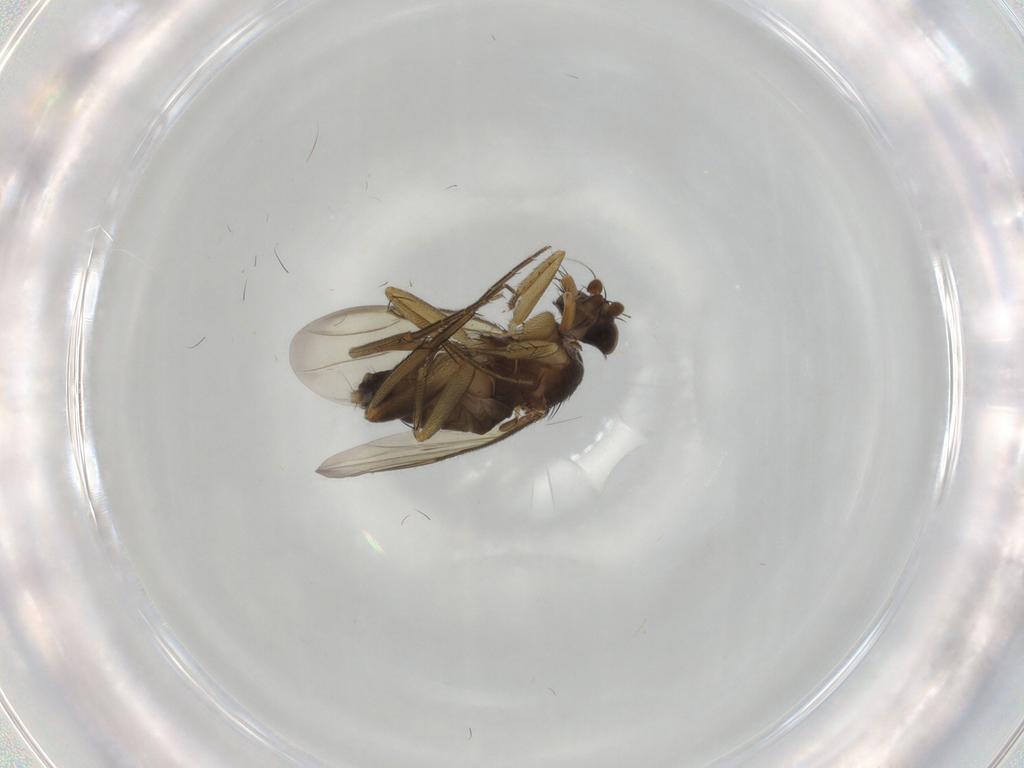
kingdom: Animalia
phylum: Arthropoda
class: Insecta
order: Diptera
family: Phoridae
